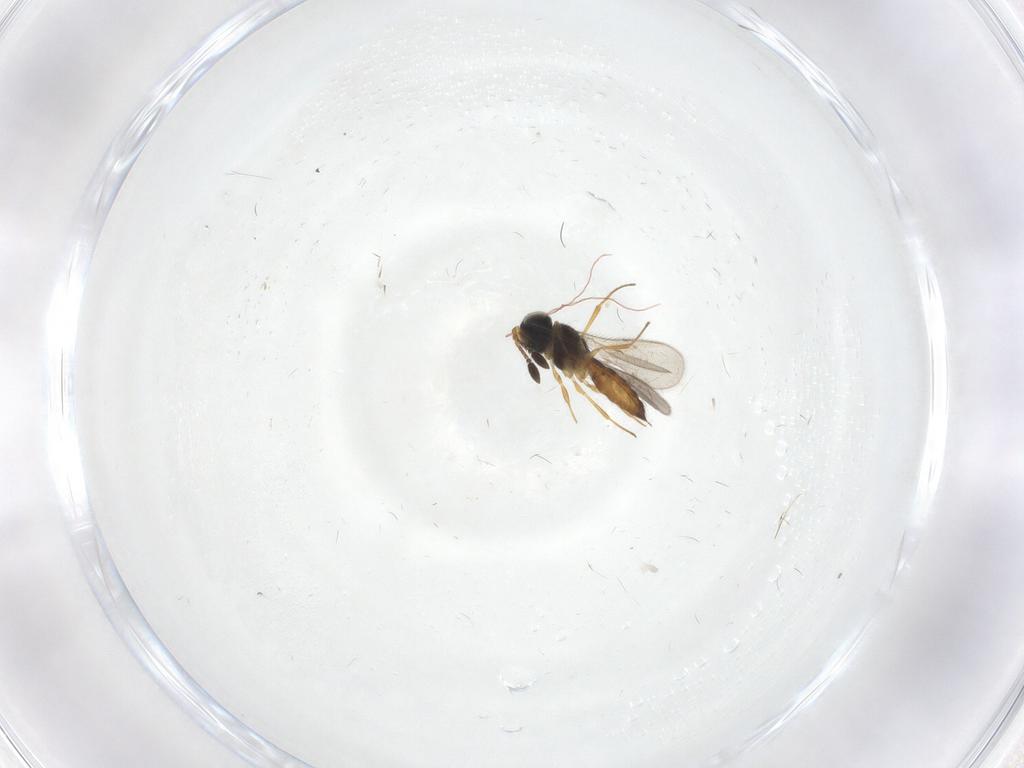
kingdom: Animalia
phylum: Arthropoda
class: Insecta
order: Hymenoptera
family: Scelionidae
